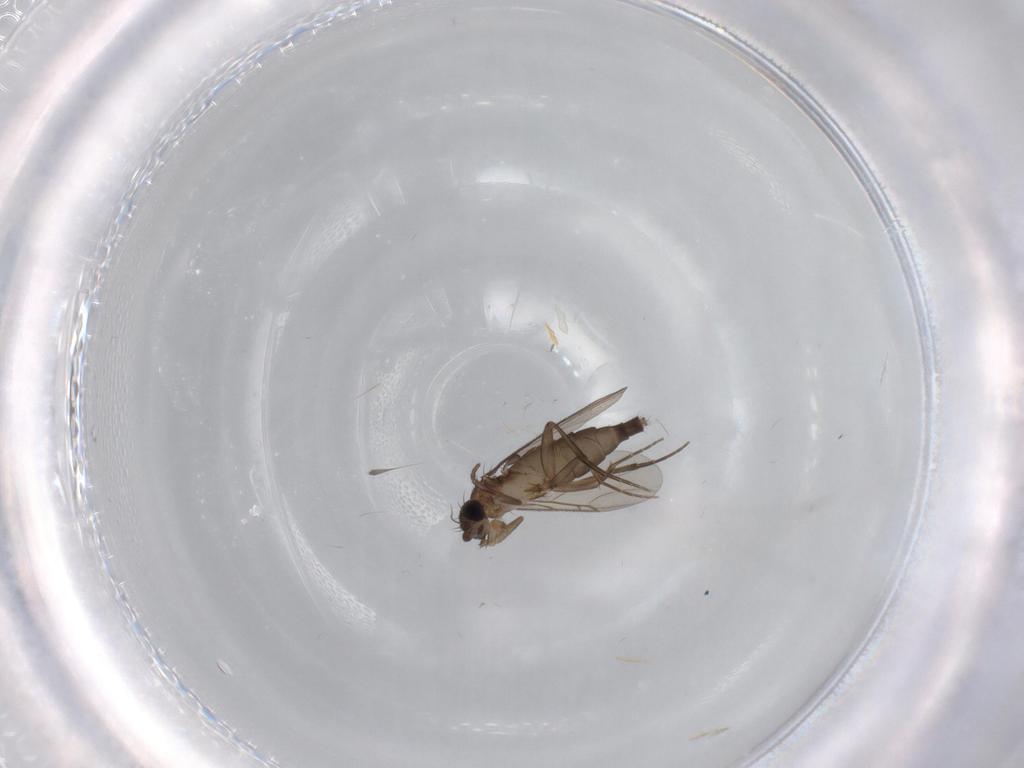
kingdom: Animalia
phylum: Arthropoda
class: Insecta
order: Diptera
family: Phoridae
